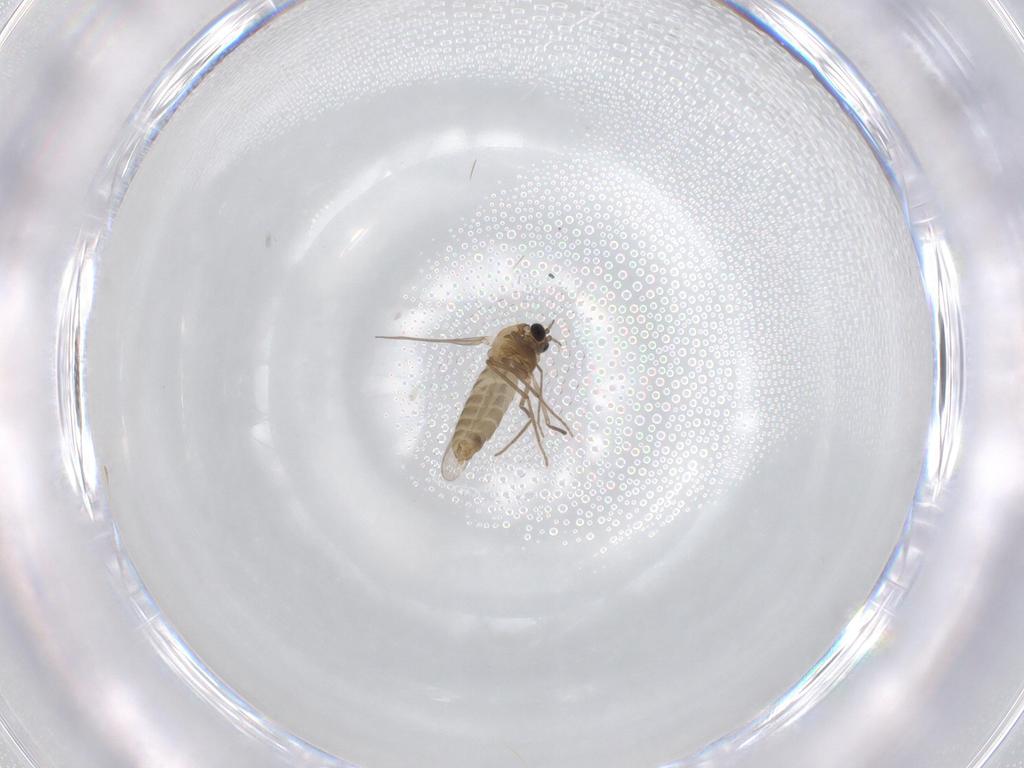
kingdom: Animalia
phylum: Arthropoda
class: Insecta
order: Diptera
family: Chironomidae
